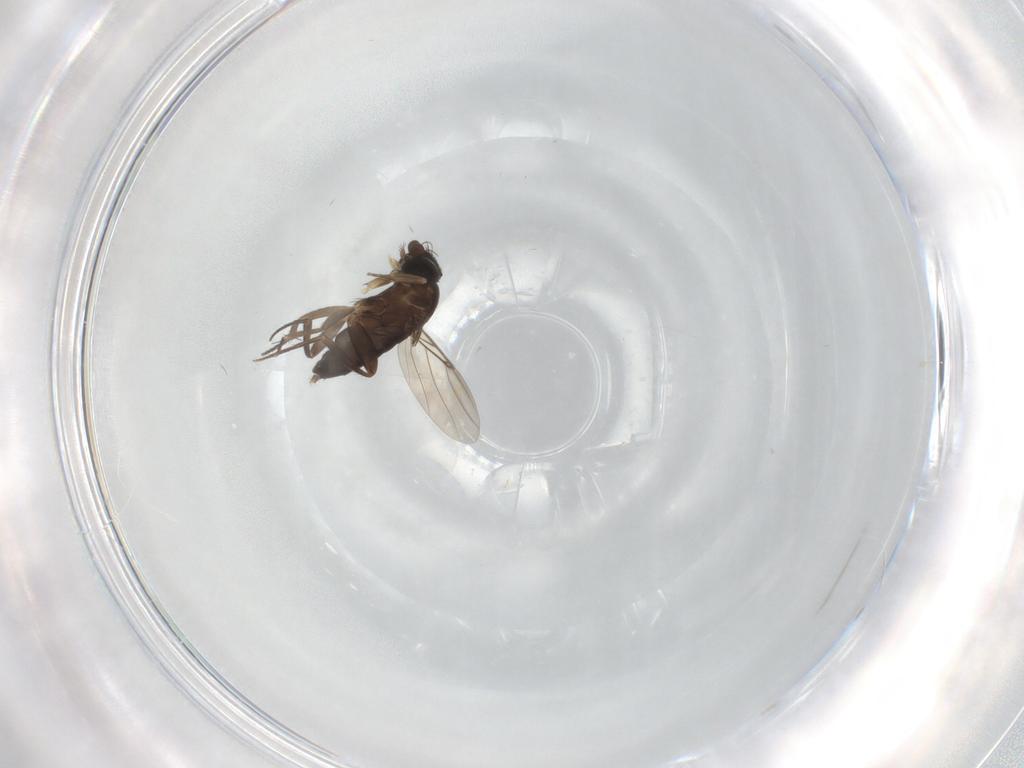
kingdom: Animalia
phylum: Arthropoda
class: Insecta
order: Diptera
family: Phoridae
